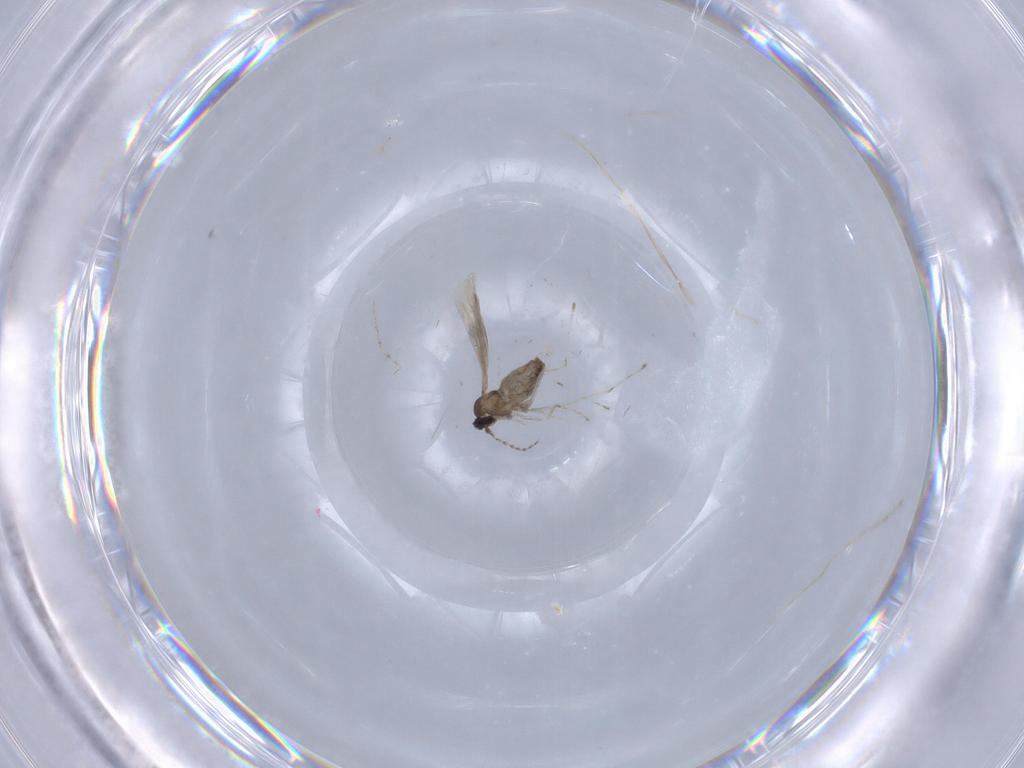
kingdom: Animalia
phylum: Arthropoda
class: Insecta
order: Diptera
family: Cecidomyiidae
